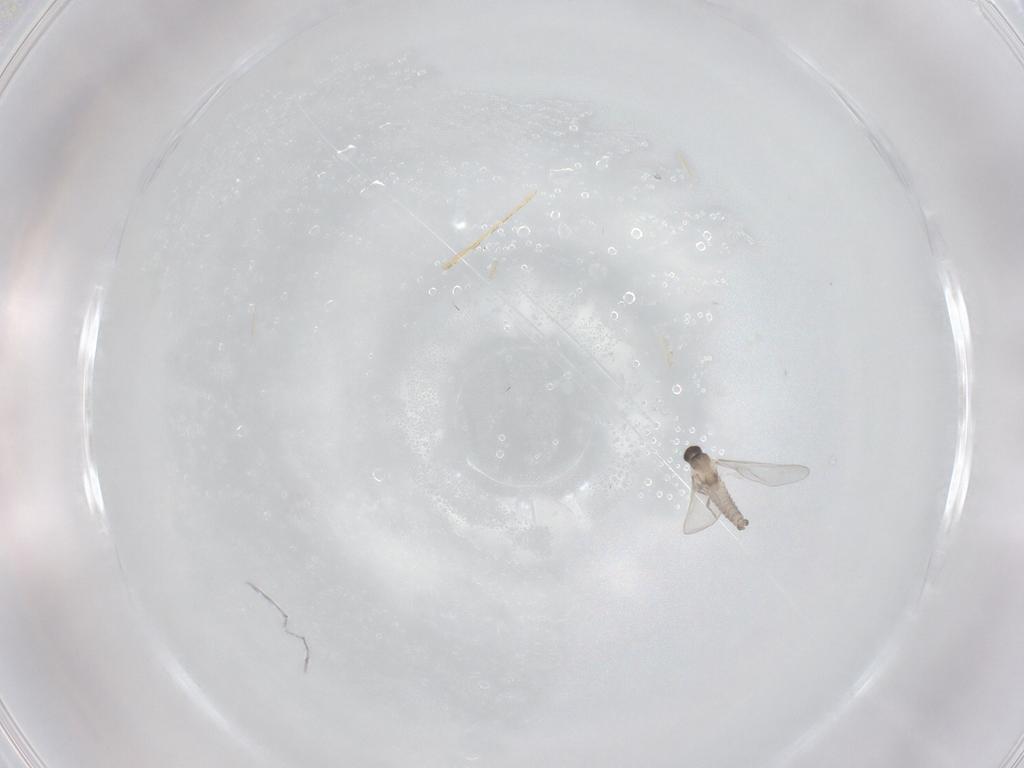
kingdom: Animalia
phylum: Arthropoda
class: Insecta
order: Diptera
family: Cecidomyiidae
